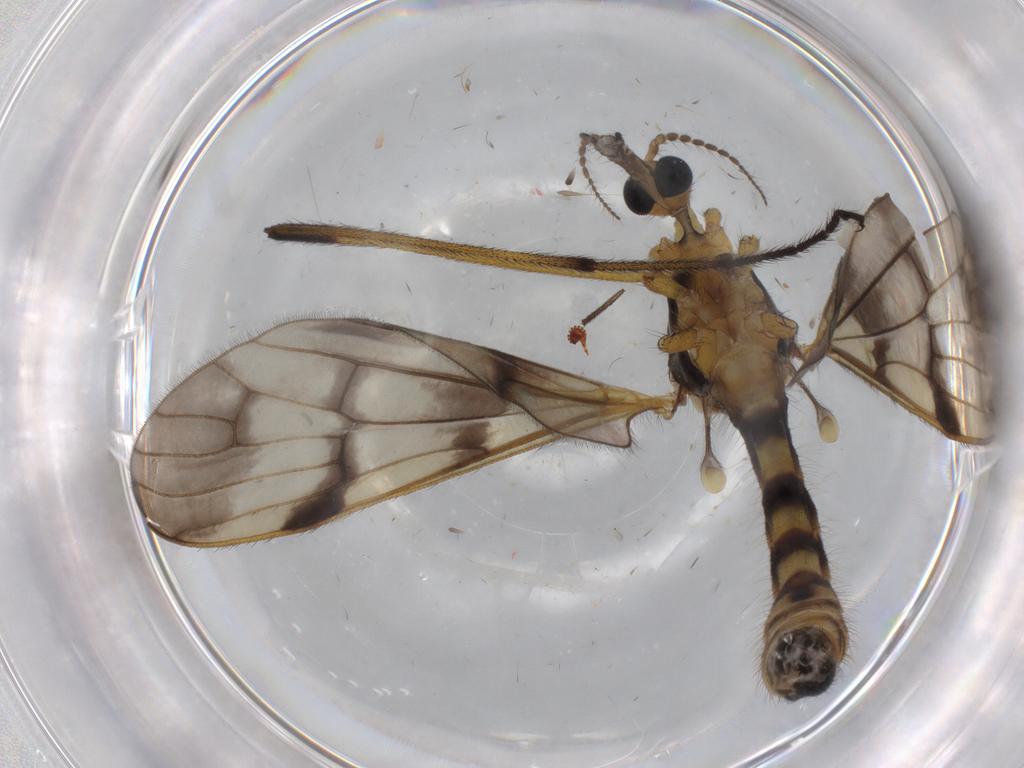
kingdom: Animalia
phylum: Arthropoda
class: Insecta
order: Diptera
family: Limoniidae
